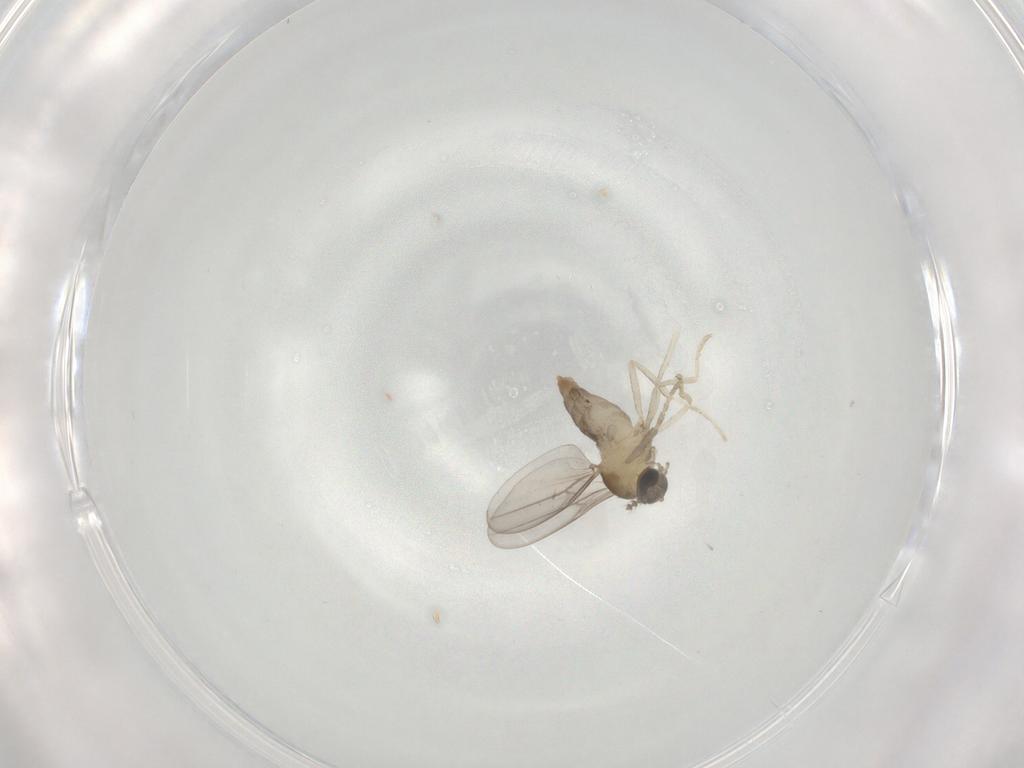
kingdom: Animalia
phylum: Arthropoda
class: Insecta
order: Diptera
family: Cecidomyiidae
